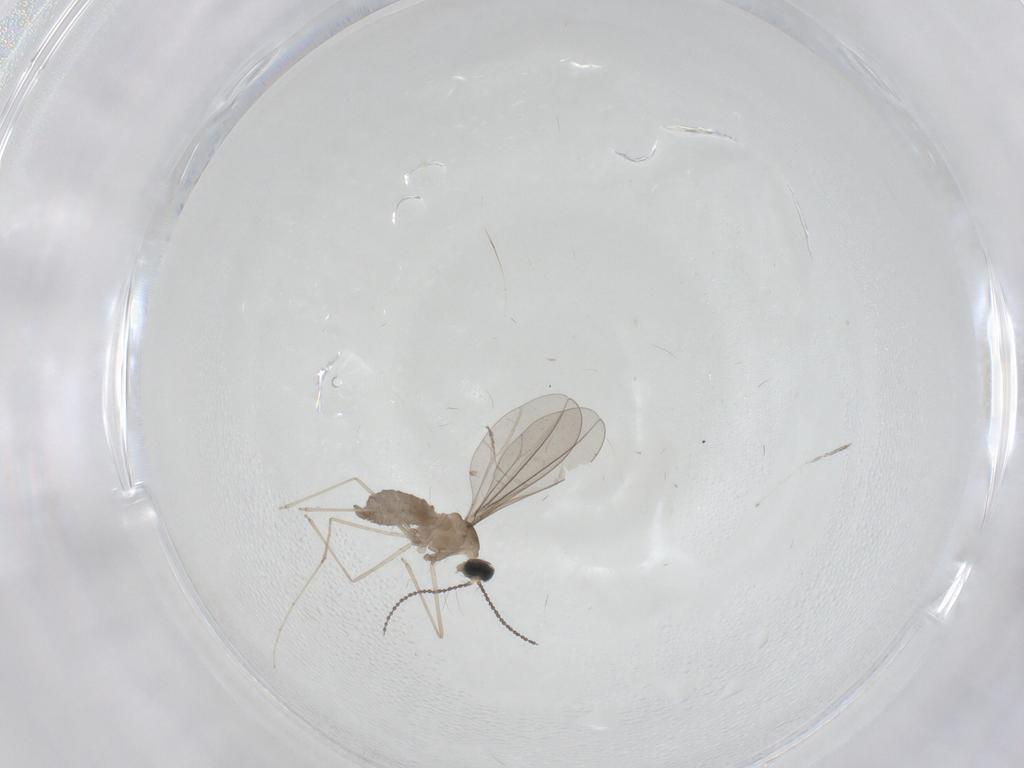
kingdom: Animalia
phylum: Arthropoda
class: Insecta
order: Diptera
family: Cecidomyiidae
